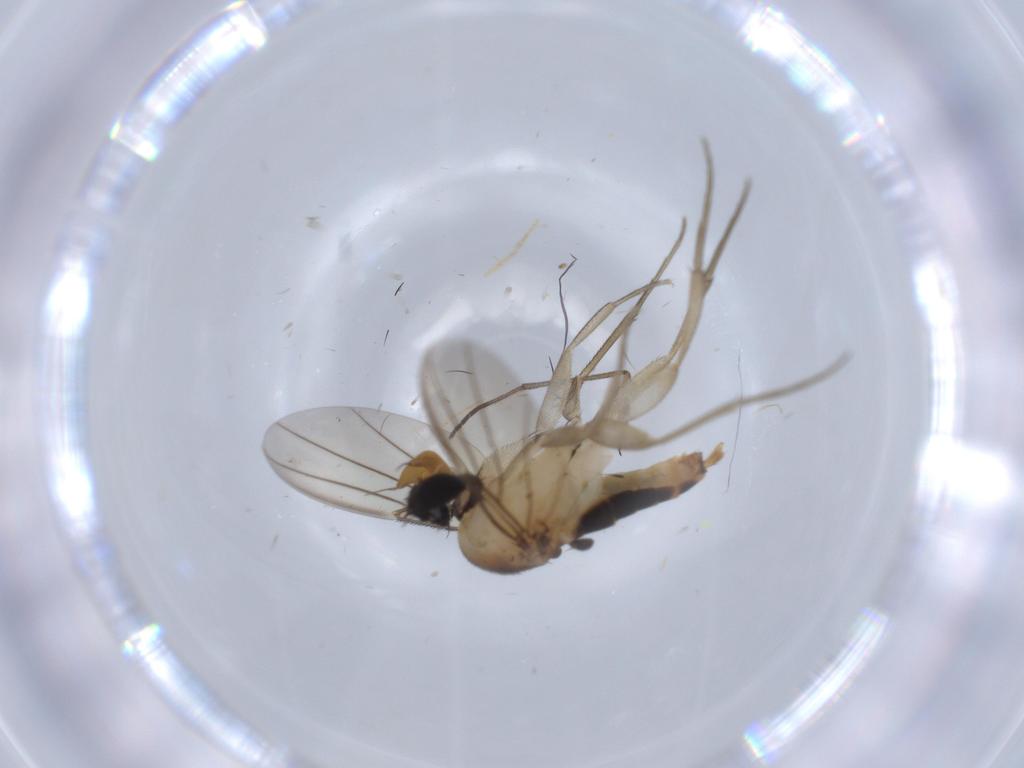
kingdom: Animalia
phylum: Arthropoda
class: Insecta
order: Diptera
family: Phoridae
